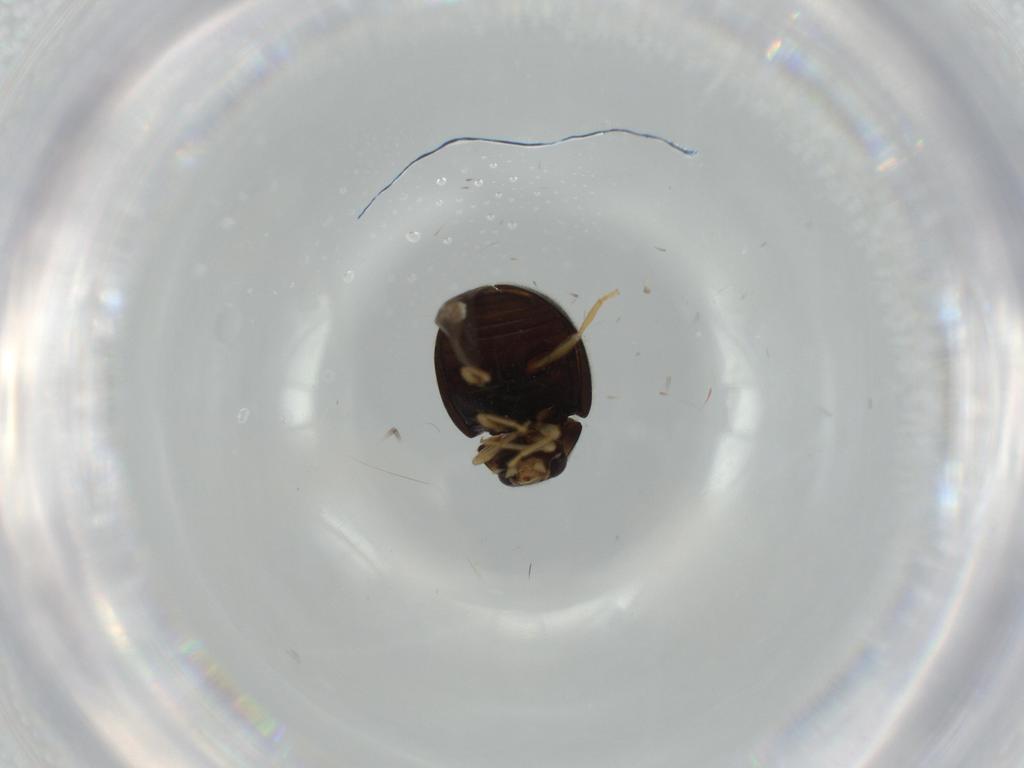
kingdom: Animalia
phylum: Arthropoda
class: Insecta
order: Coleoptera
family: Coccinellidae
